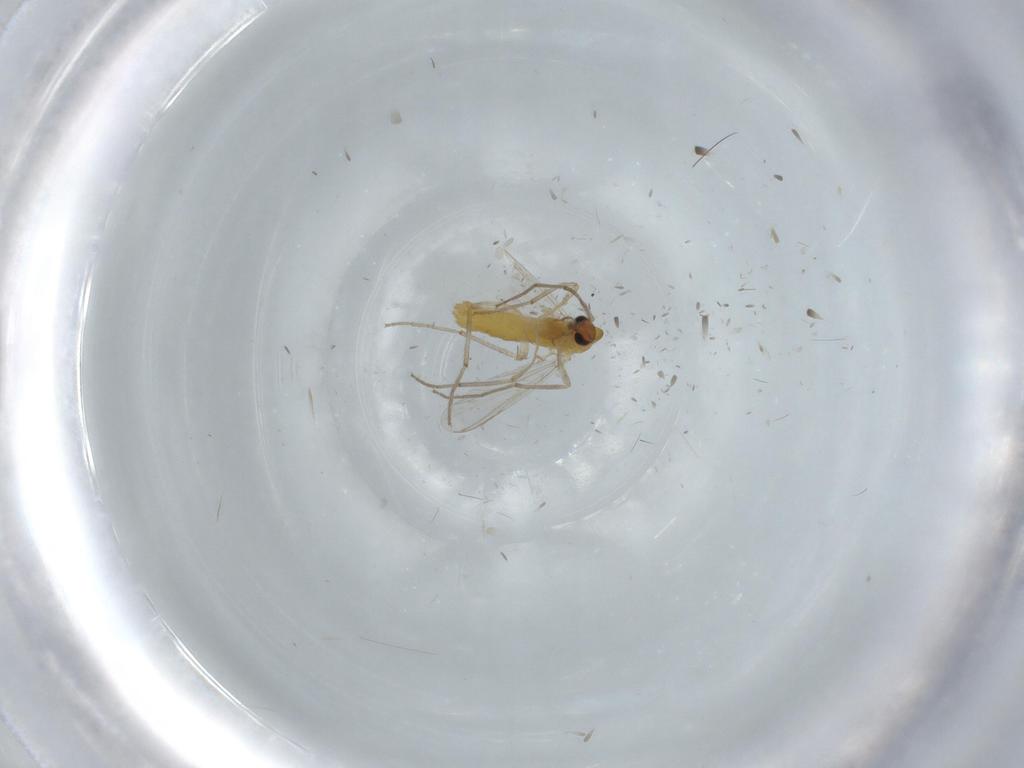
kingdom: Animalia
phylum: Arthropoda
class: Insecta
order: Diptera
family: Chironomidae
